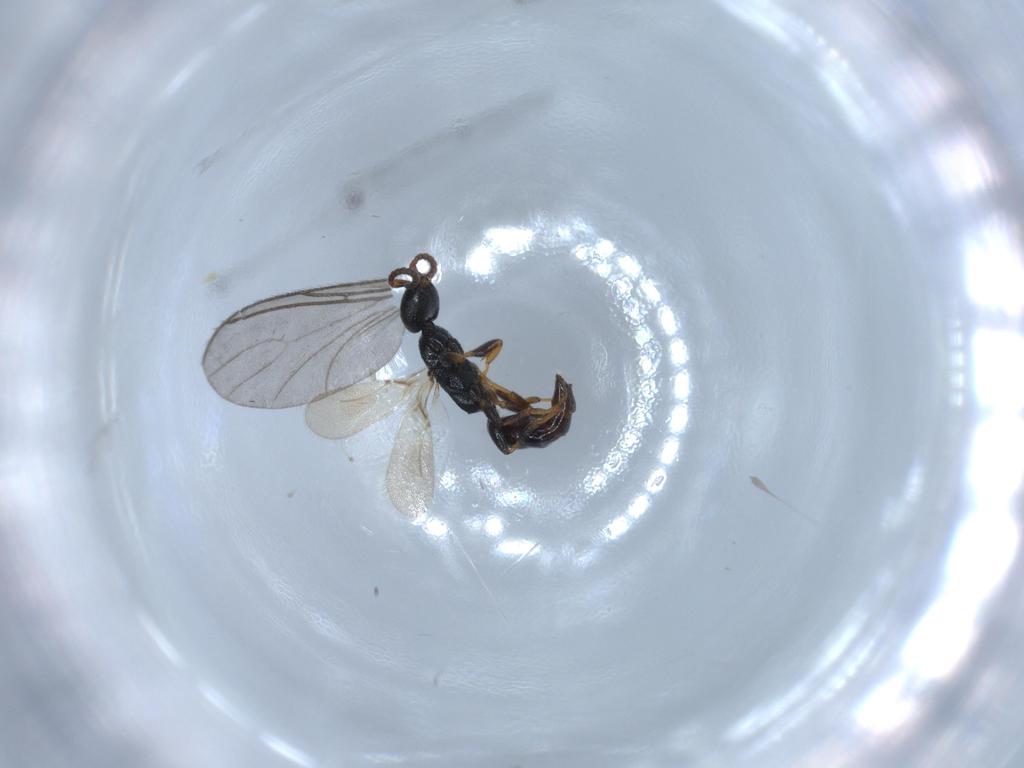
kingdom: Animalia
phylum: Arthropoda
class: Insecta
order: Hymenoptera
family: Bethylidae
